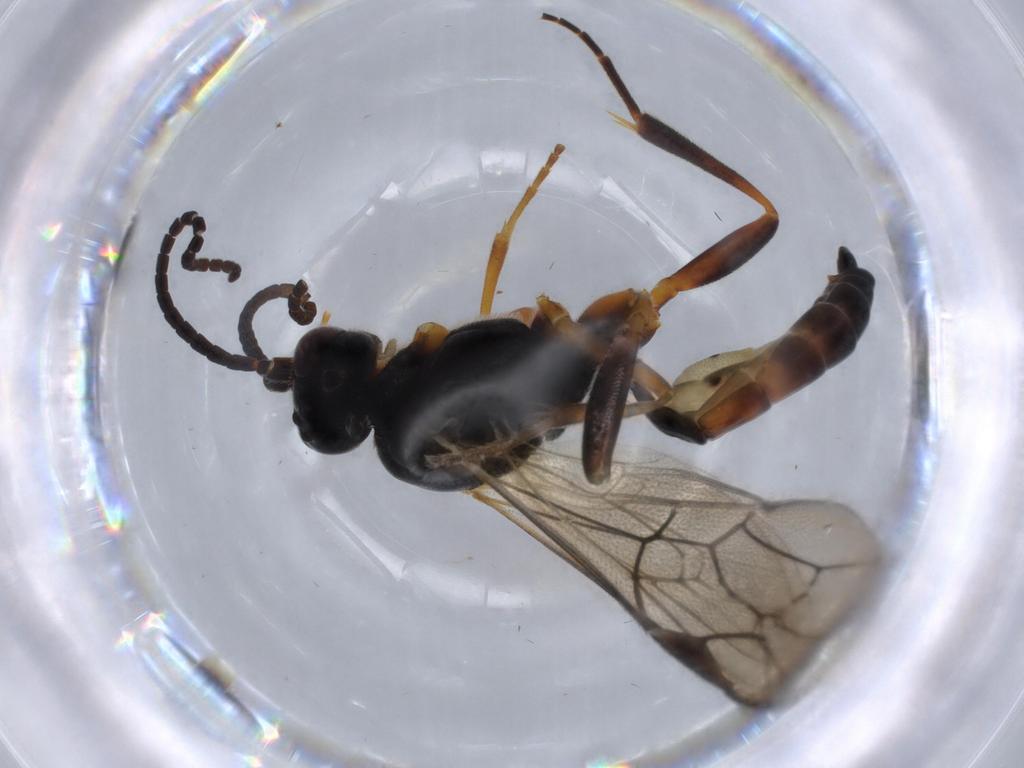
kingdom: Animalia
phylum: Arthropoda
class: Insecta
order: Hymenoptera
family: Ichneumonidae
